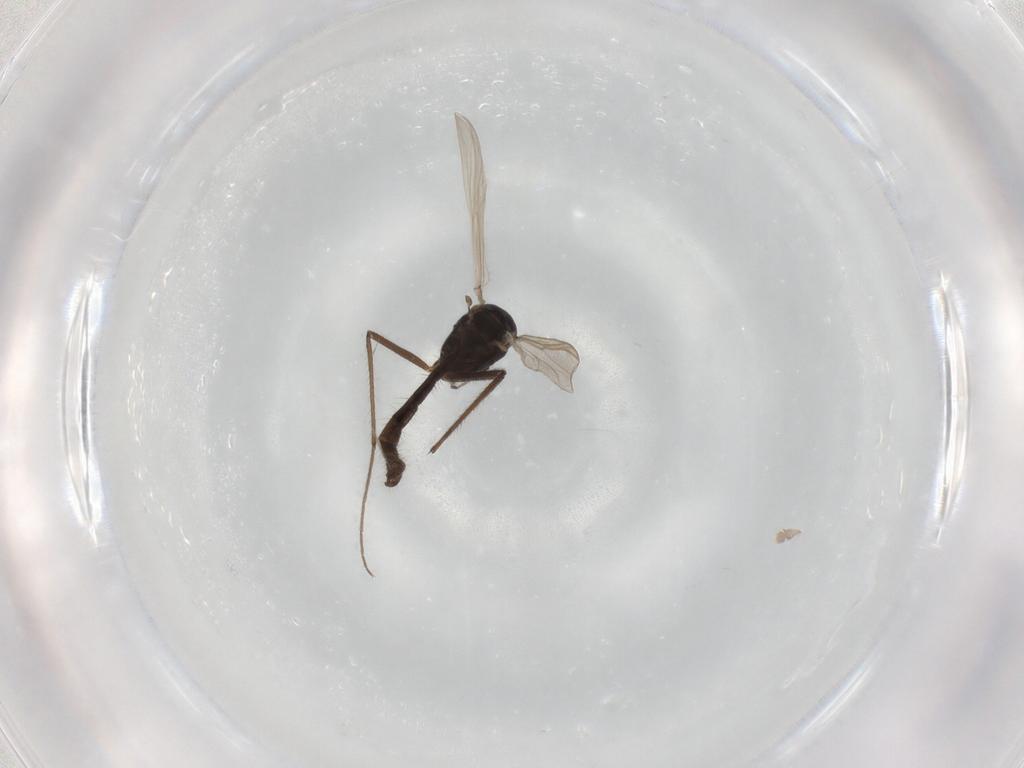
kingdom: Animalia
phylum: Arthropoda
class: Insecta
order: Diptera
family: Chironomidae
